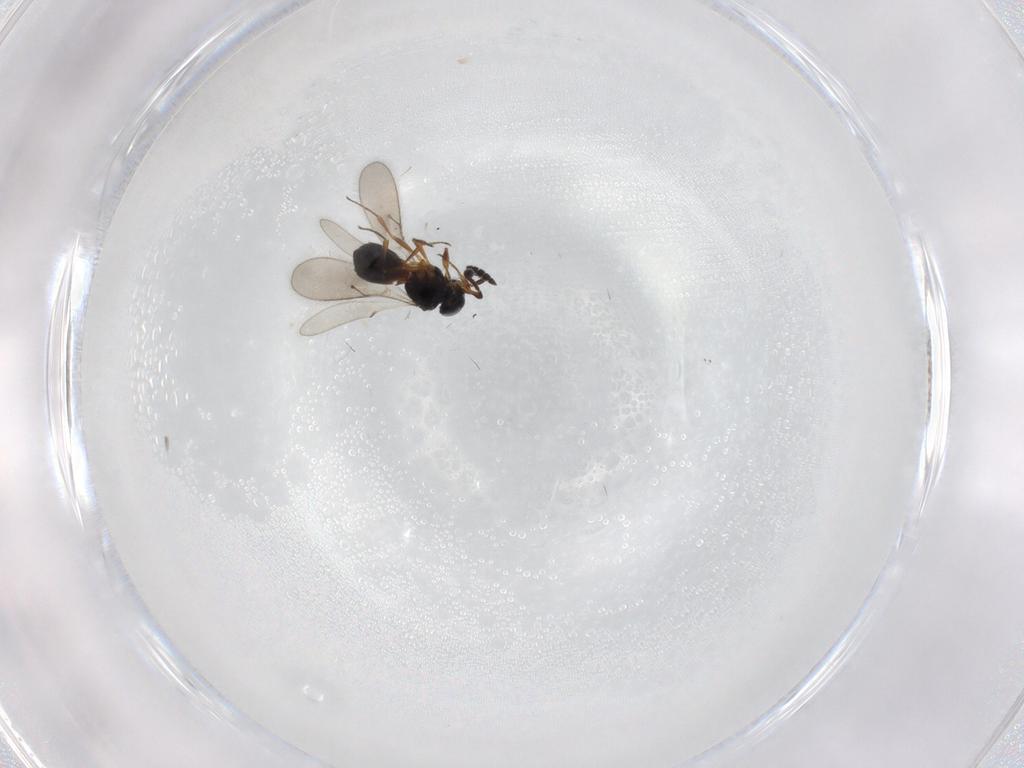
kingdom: Animalia
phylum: Arthropoda
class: Insecta
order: Hymenoptera
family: Scelionidae
